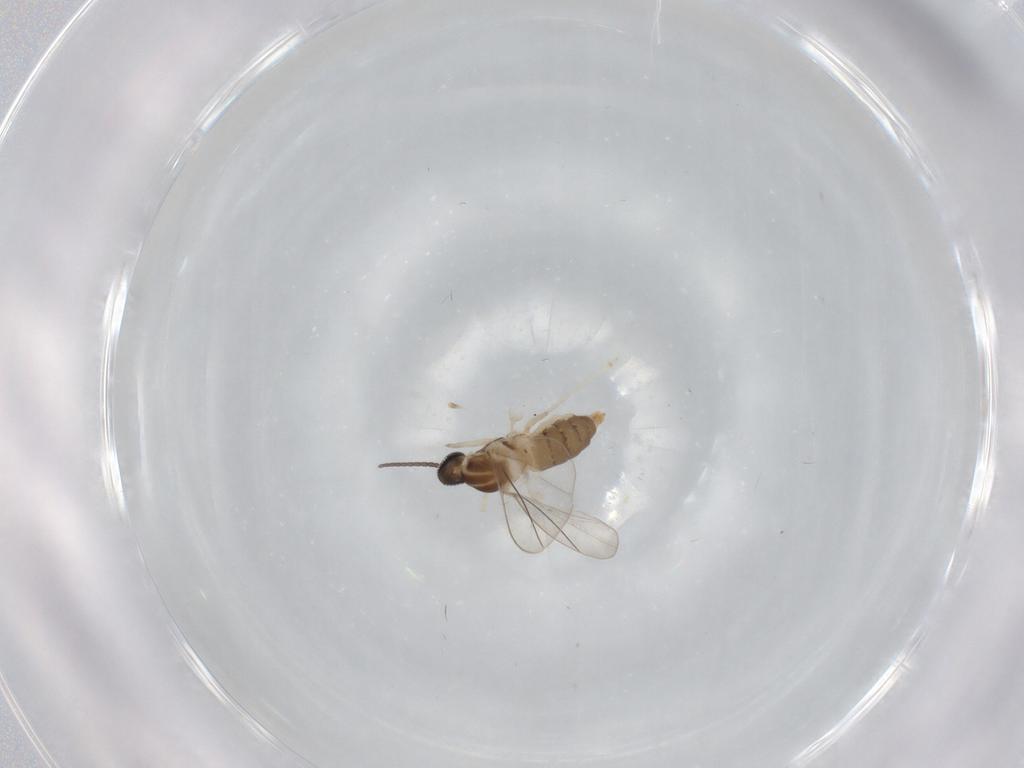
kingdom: Animalia
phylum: Arthropoda
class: Insecta
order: Diptera
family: Cecidomyiidae
